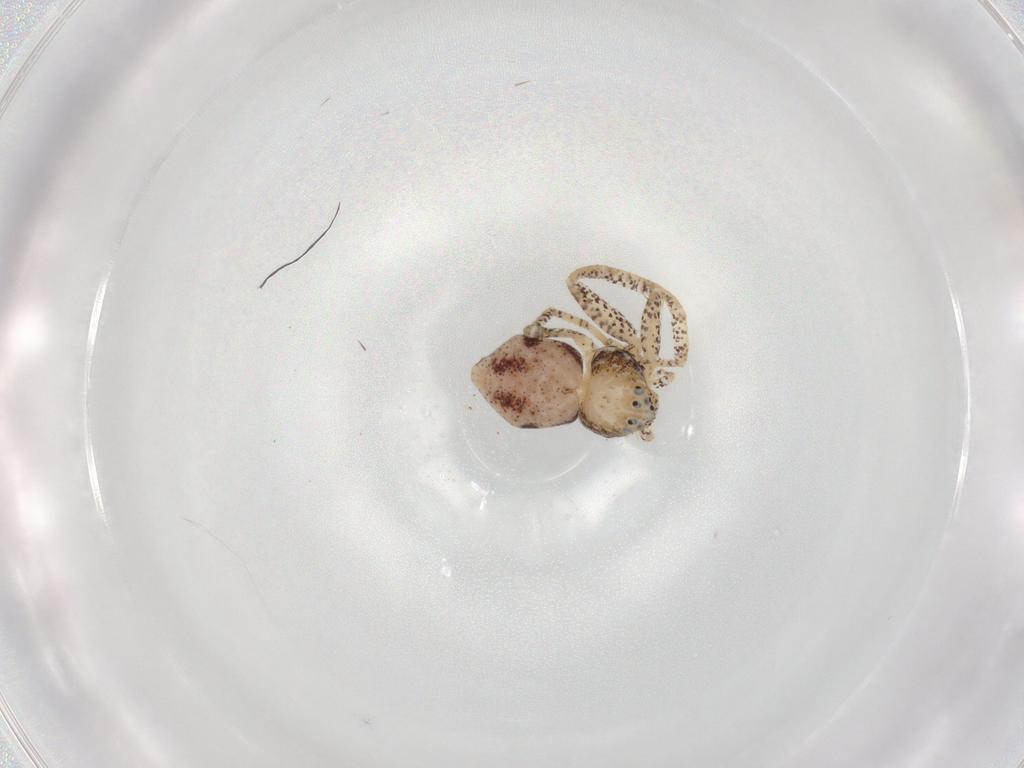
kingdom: Animalia
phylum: Arthropoda
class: Arachnida
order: Araneae
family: Philodromidae
